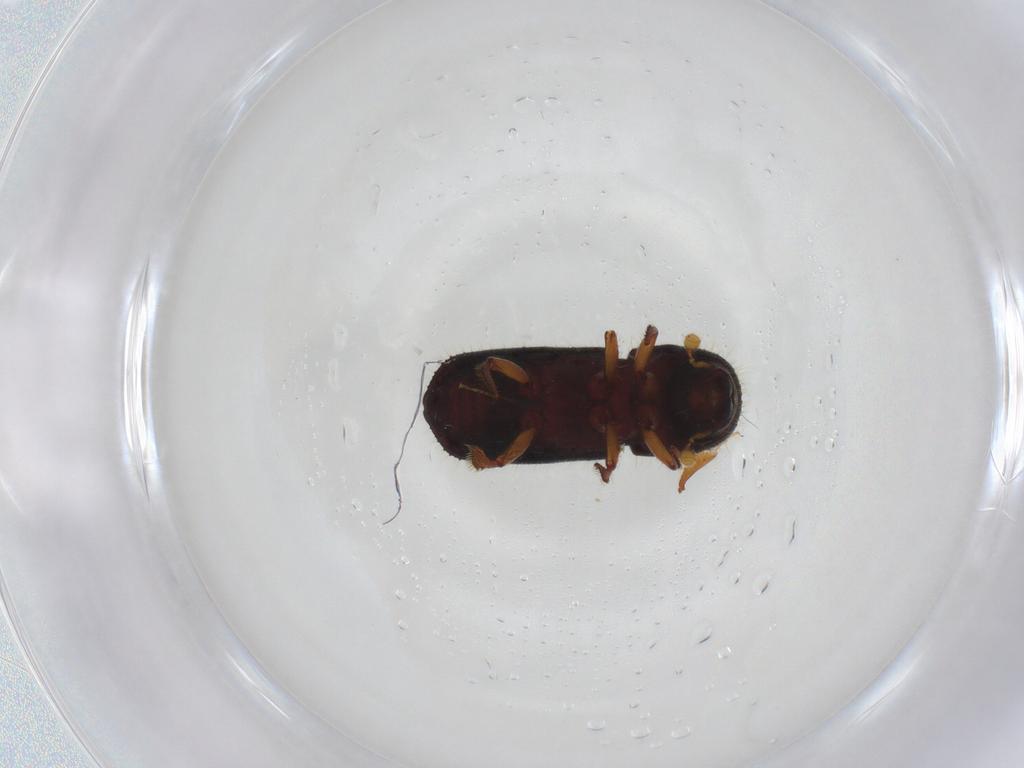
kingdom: Animalia
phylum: Arthropoda
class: Insecta
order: Coleoptera
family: Curculionidae
